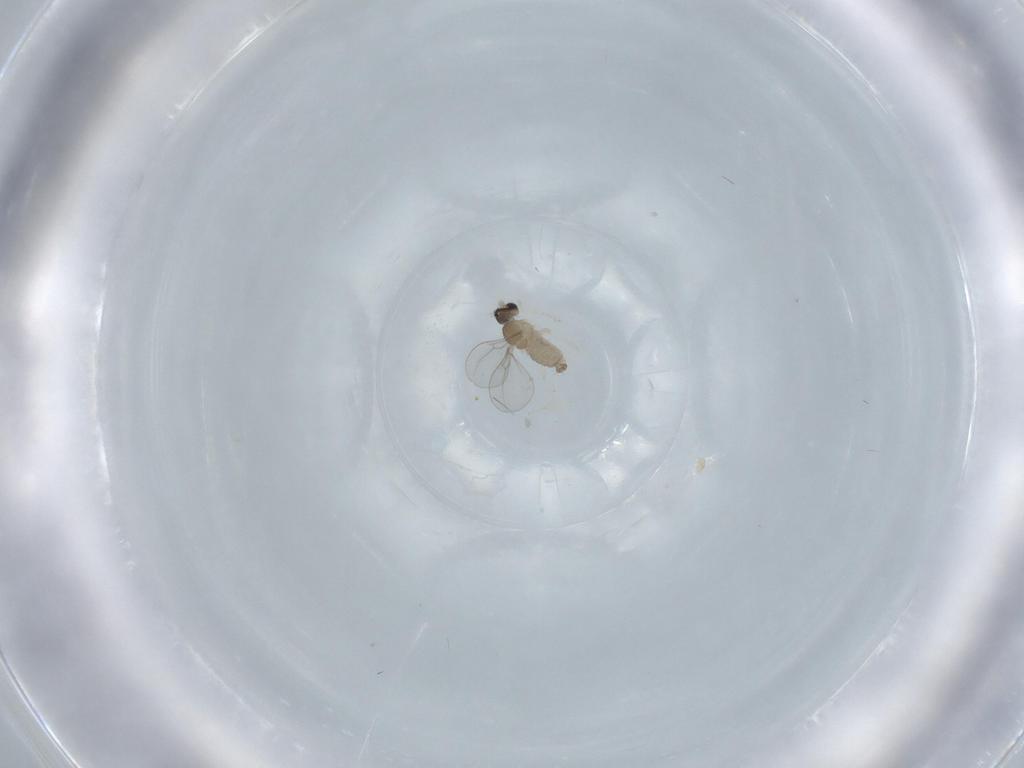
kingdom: Animalia
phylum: Arthropoda
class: Insecta
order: Diptera
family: Cecidomyiidae
